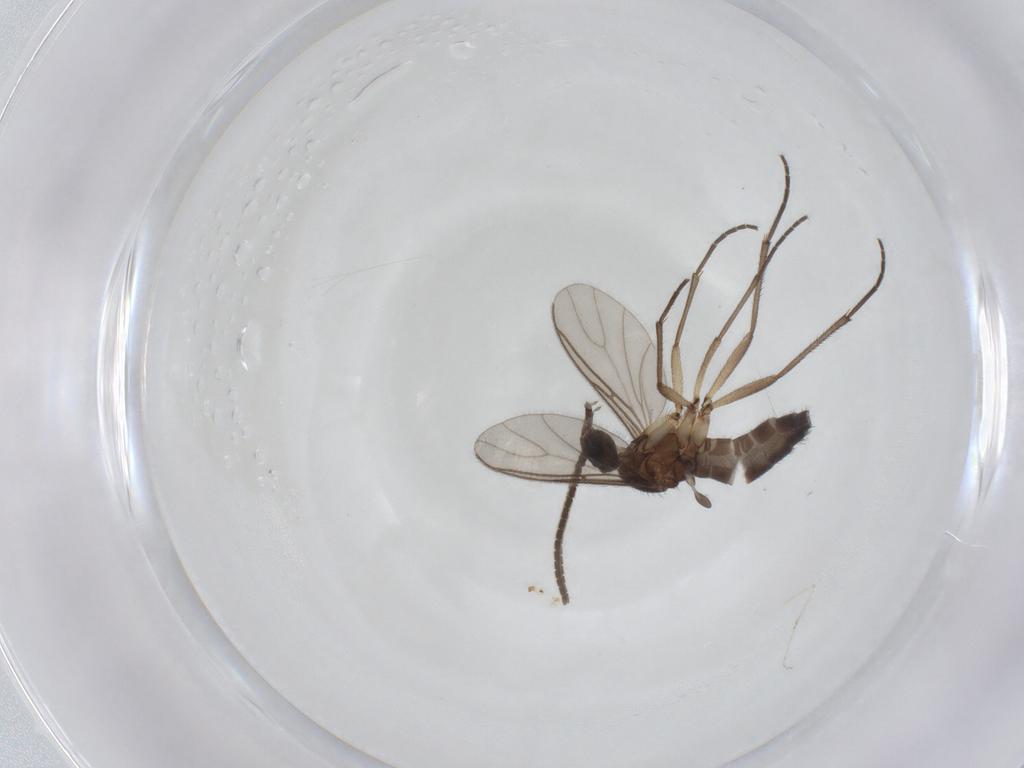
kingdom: Animalia
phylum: Arthropoda
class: Insecta
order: Diptera
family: Sciaridae
